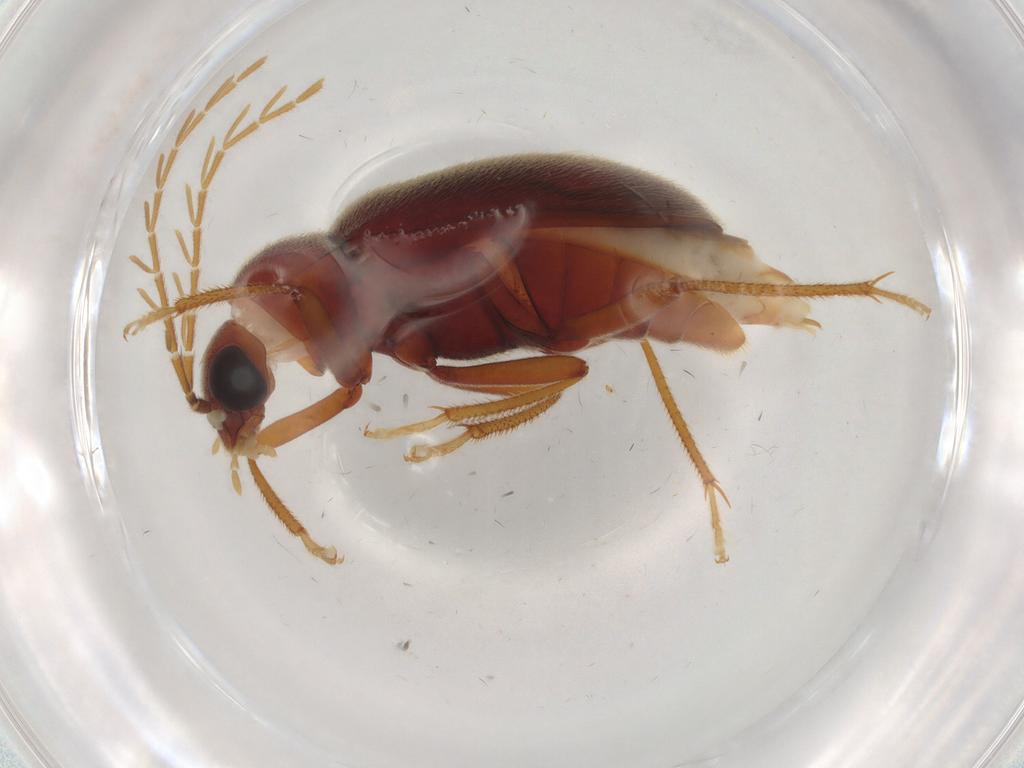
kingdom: Animalia
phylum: Arthropoda
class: Insecta
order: Coleoptera
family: Ptilodactylidae
